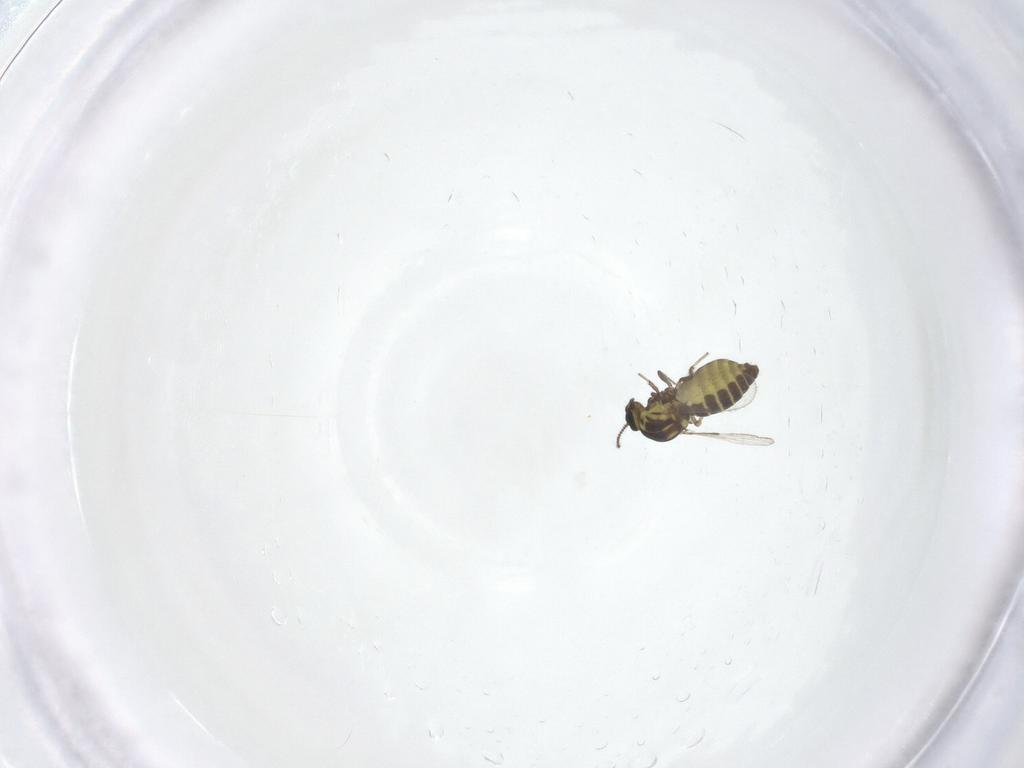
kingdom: Animalia
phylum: Arthropoda
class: Insecta
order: Diptera
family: Ceratopogonidae
